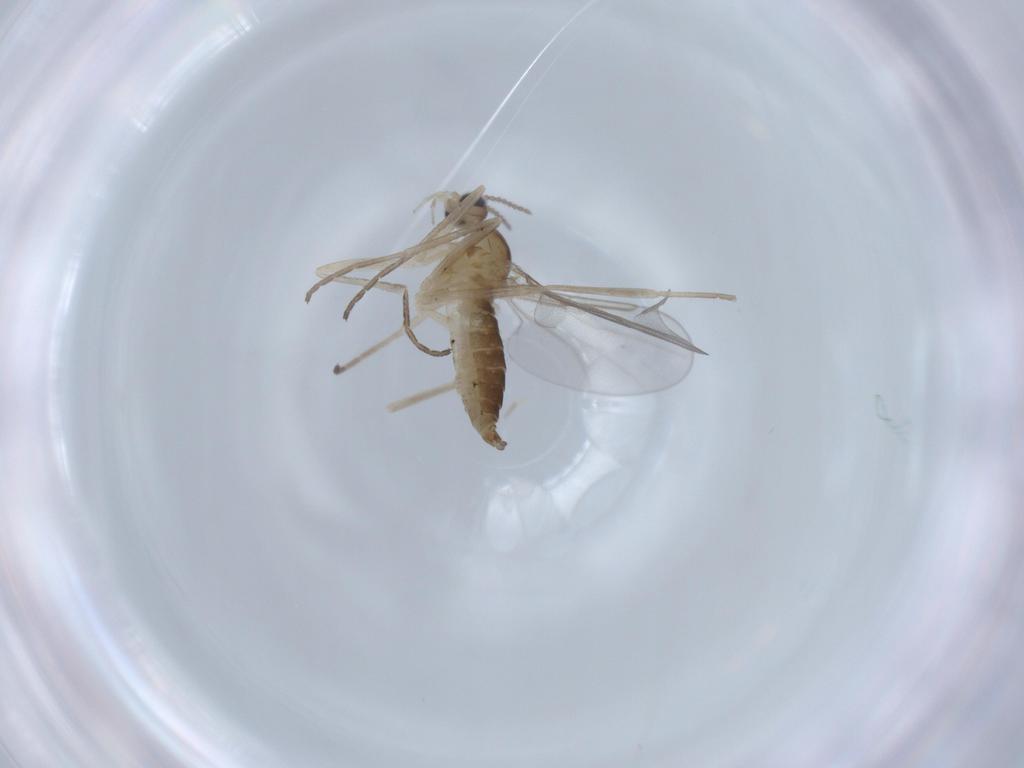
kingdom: Animalia
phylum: Arthropoda
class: Insecta
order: Diptera
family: Cecidomyiidae
